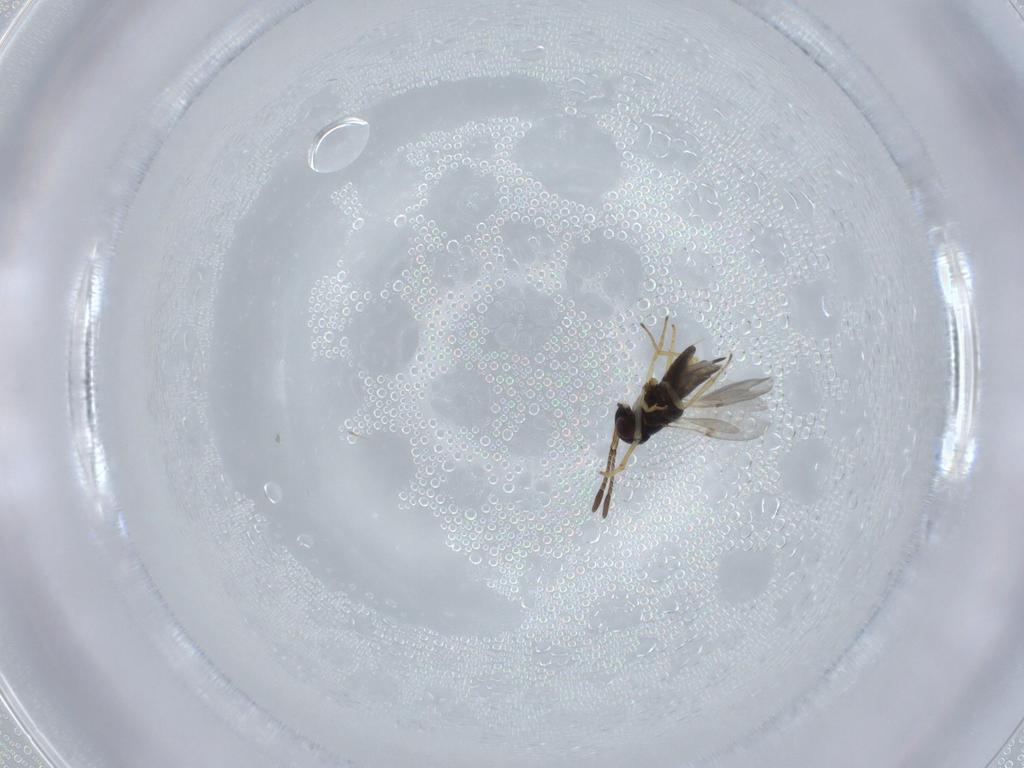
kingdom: Animalia
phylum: Arthropoda
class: Insecta
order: Hymenoptera
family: Encyrtidae
